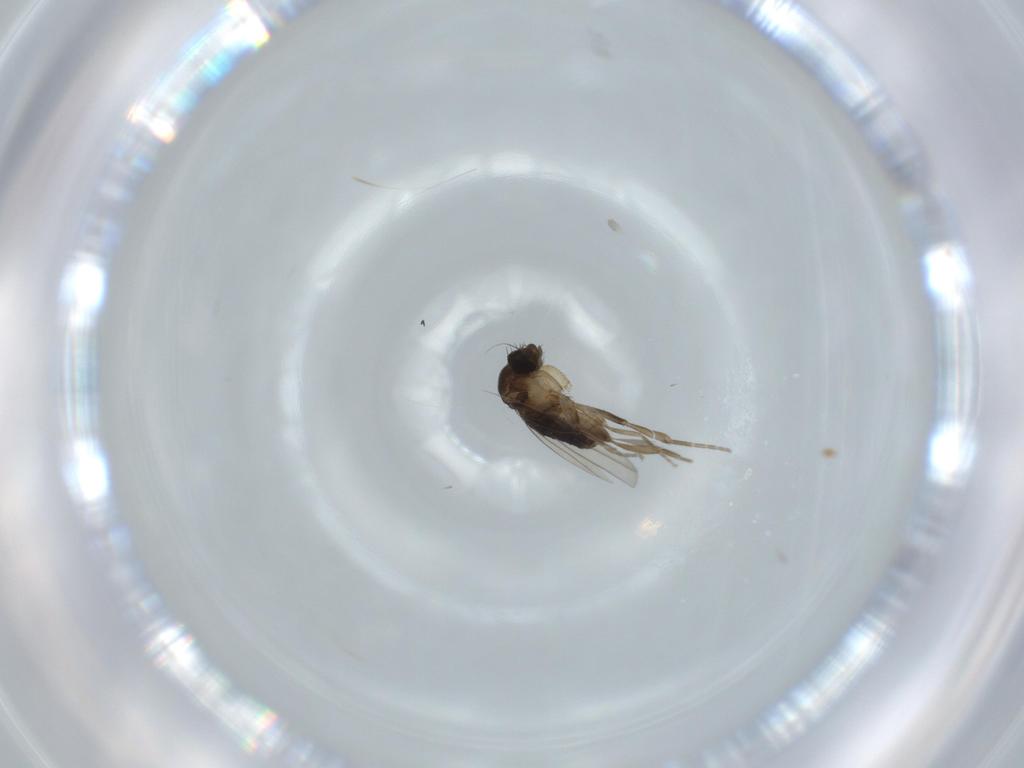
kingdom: Animalia
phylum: Arthropoda
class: Insecta
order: Diptera
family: Phoridae
